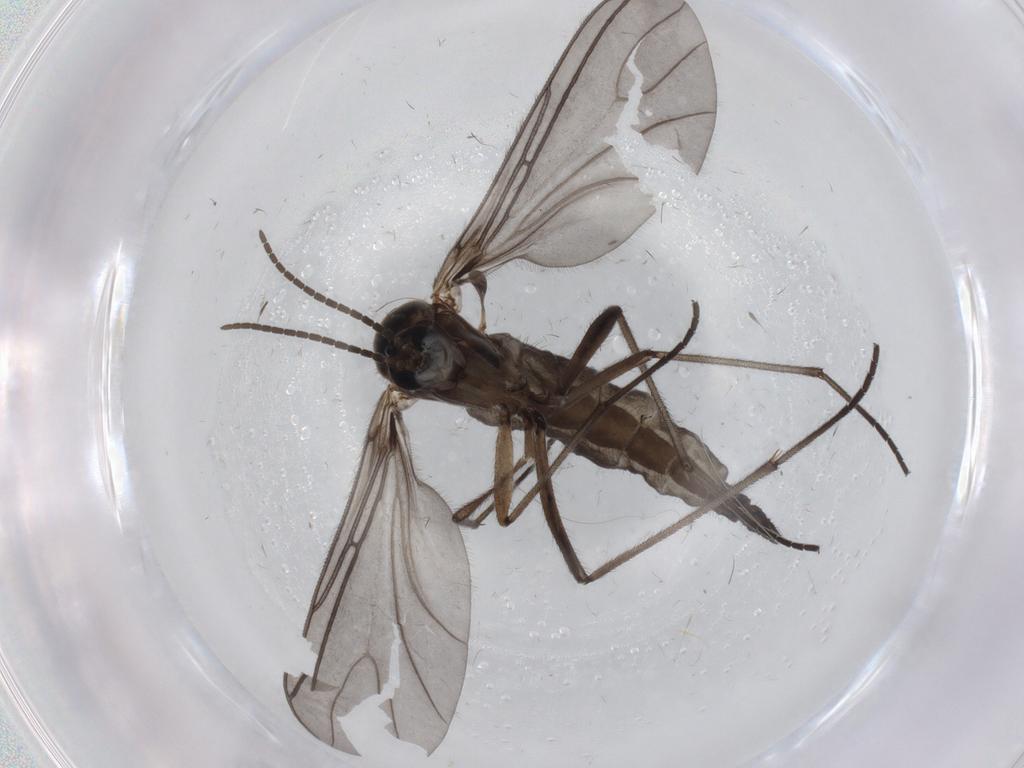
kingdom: Animalia
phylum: Arthropoda
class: Insecta
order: Diptera
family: Sciaridae
